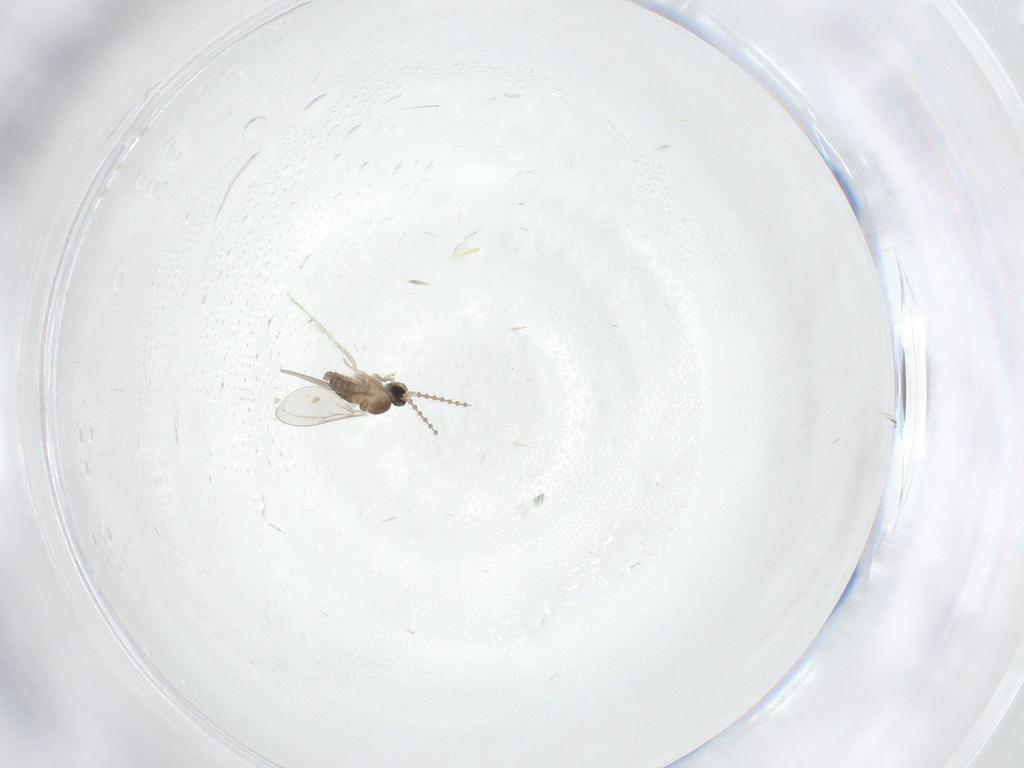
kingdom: Animalia
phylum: Arthropoda
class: Insecta
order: Diptera
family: Cecidomyiidae
